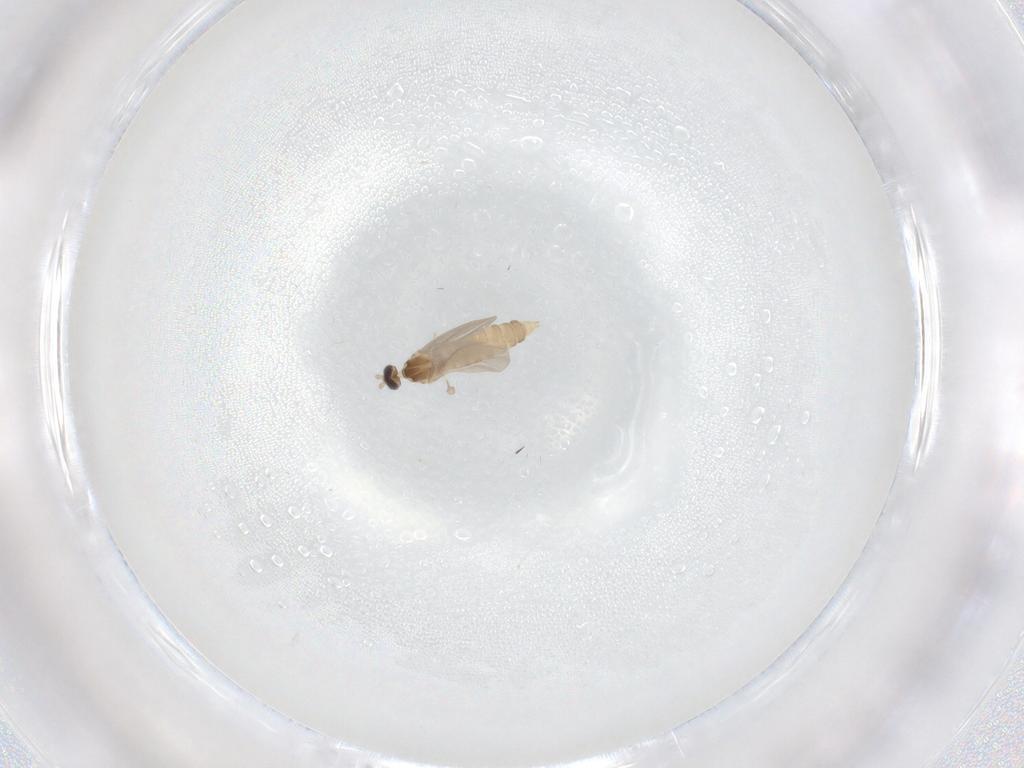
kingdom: Animalia
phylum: Arthropoda
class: Insecta
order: Diptera
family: Cecidomyiidae
